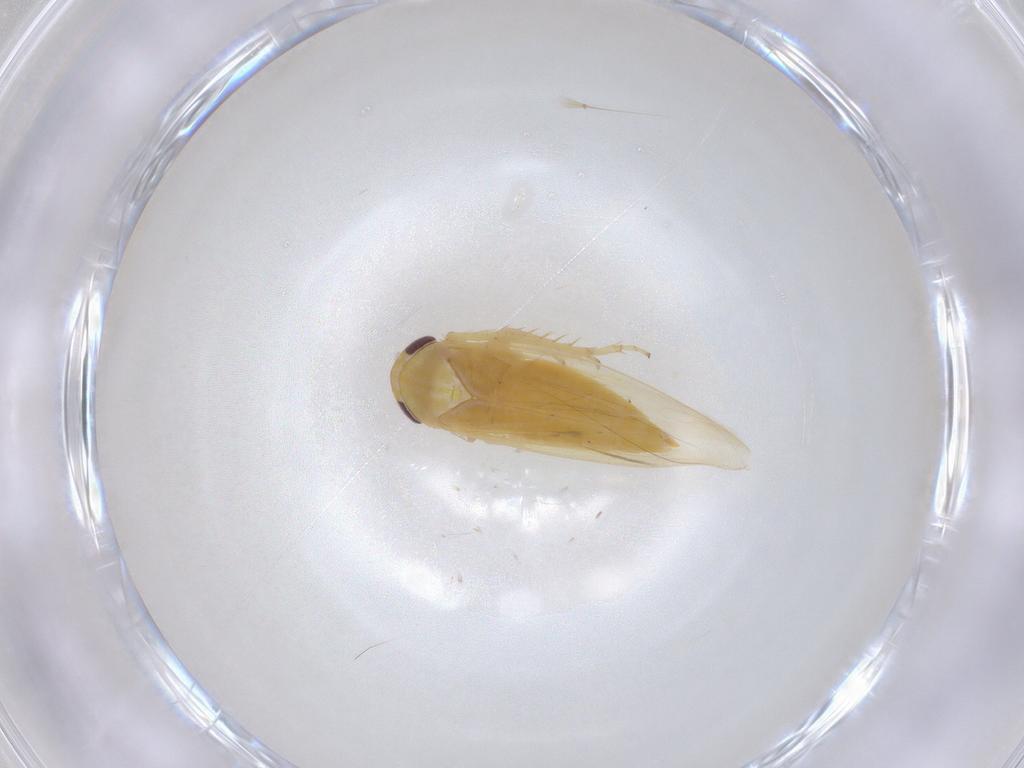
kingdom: Animalia
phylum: Arthropoda
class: Insecta
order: Hemiptera
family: Cicadellidae
